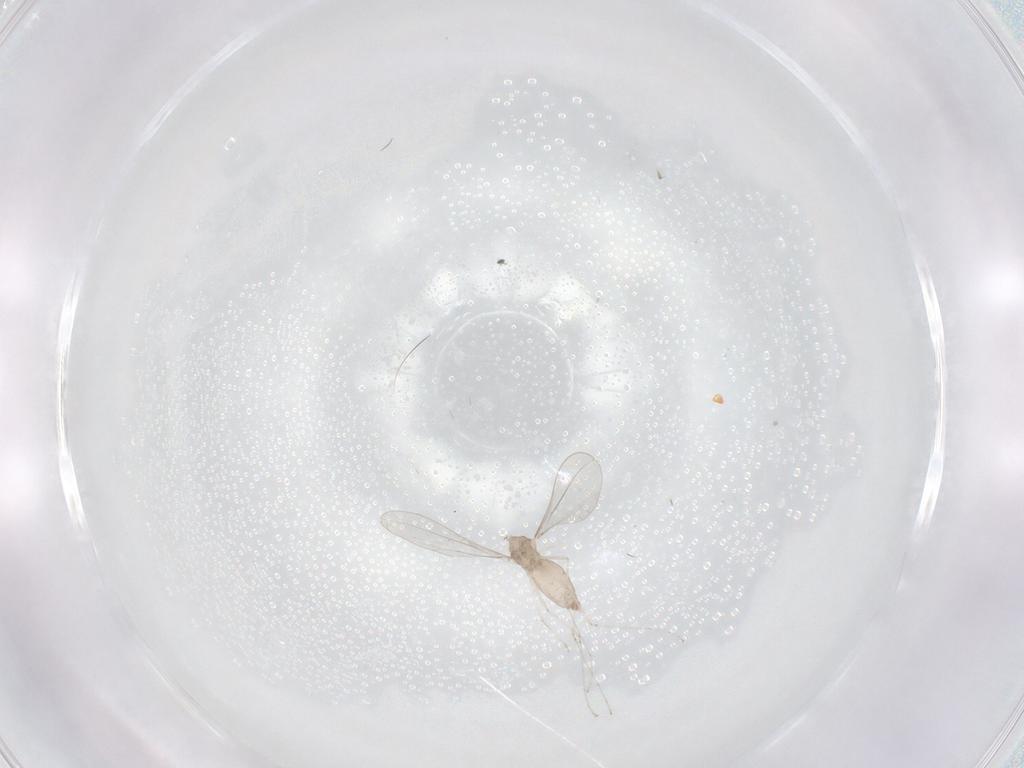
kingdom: Animalia
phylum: Arthropoda
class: Insecta
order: Diptera
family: Cecidomyiidae
